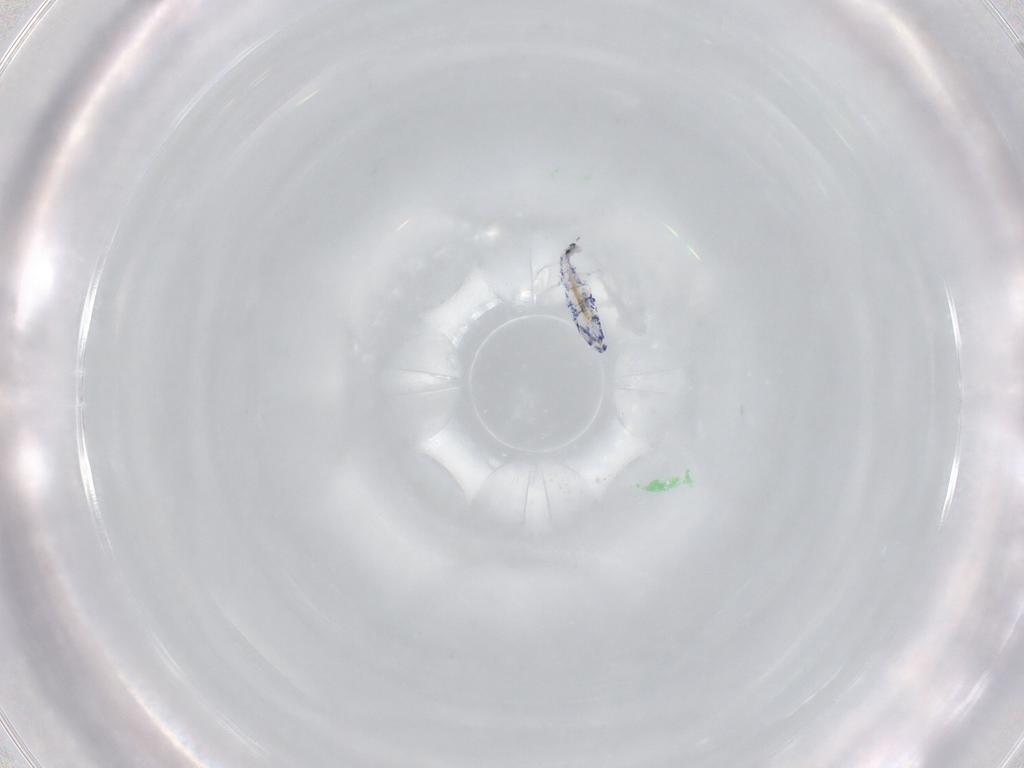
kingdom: Animalia
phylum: Arthropoda
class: Collembola
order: Entomobryomorpha
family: Entomobryidae
